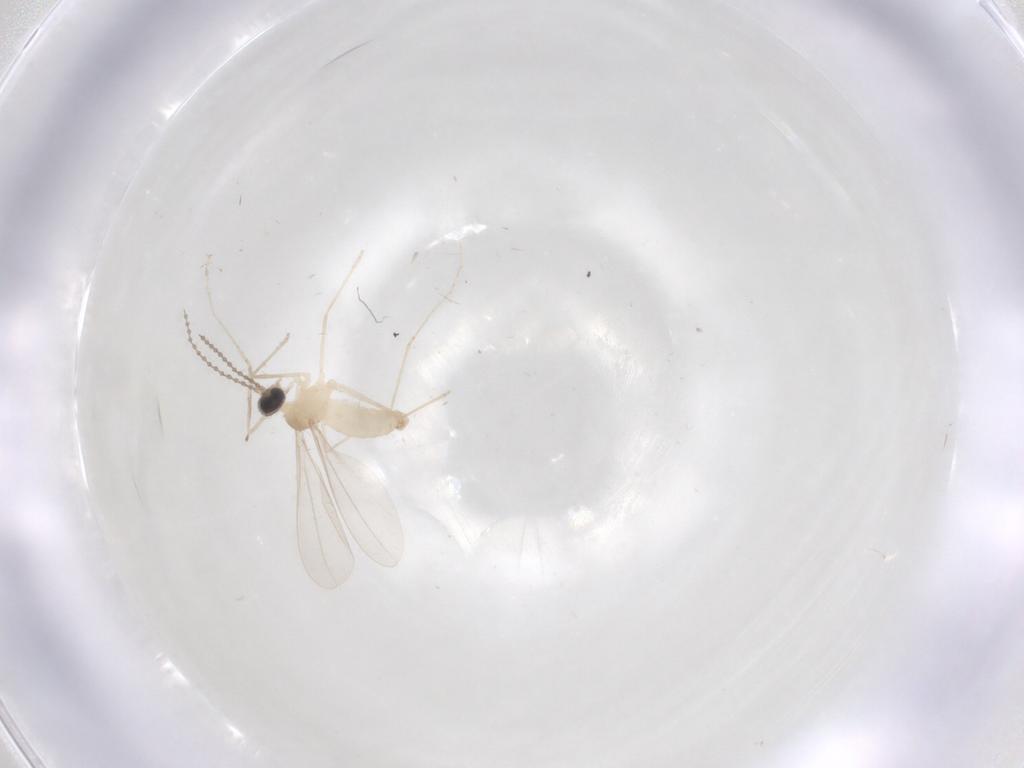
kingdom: Animalia
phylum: Arthropoda
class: Insecta
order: Diptera
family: Cecidomyiidae
